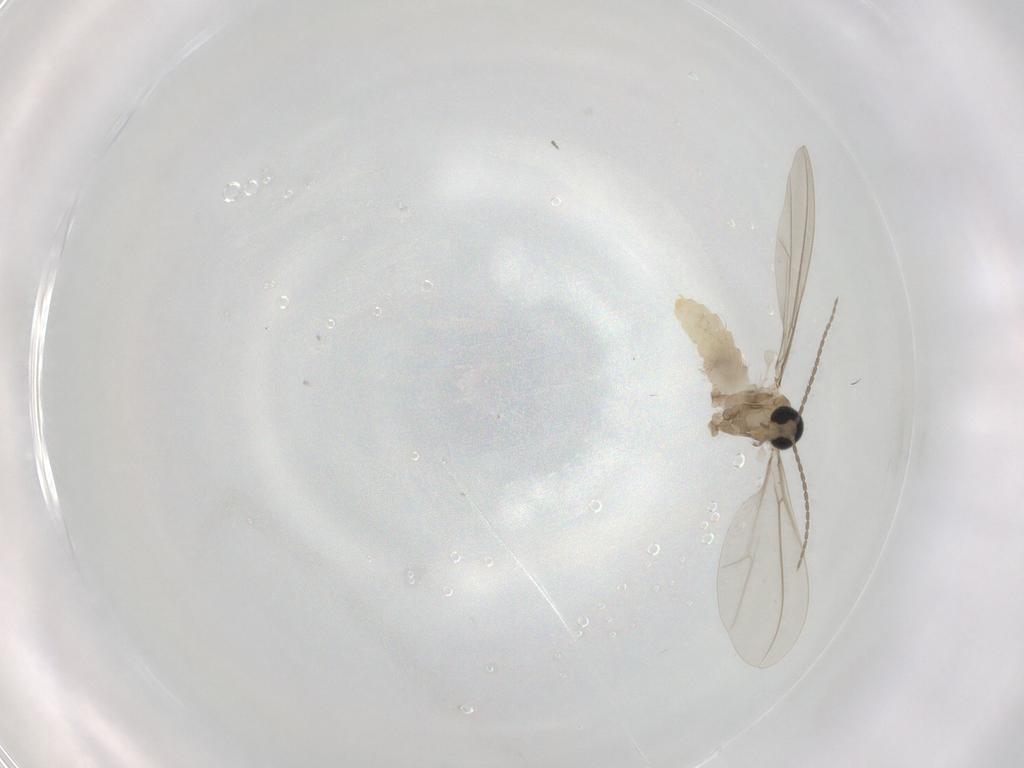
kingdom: Animalia
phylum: Arthropoda
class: Insecta
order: Diptera
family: Cecidomyiidae
